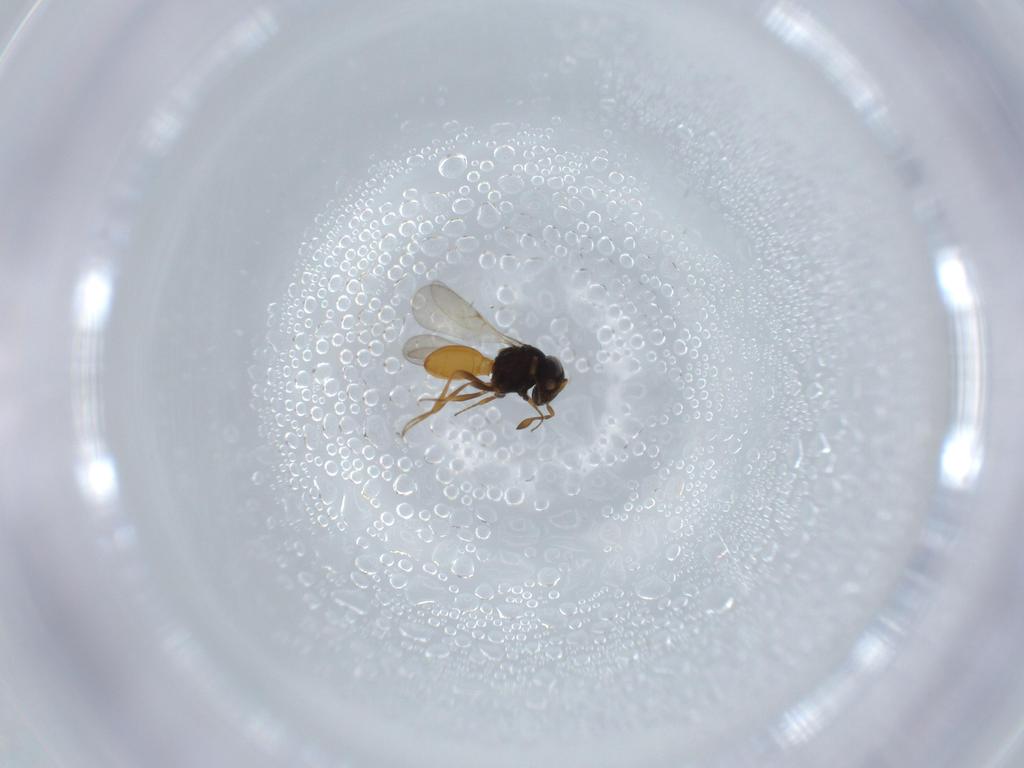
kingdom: Animalia
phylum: Arthropoda
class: Insecta
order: Hymenoptera
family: Scelionidae
